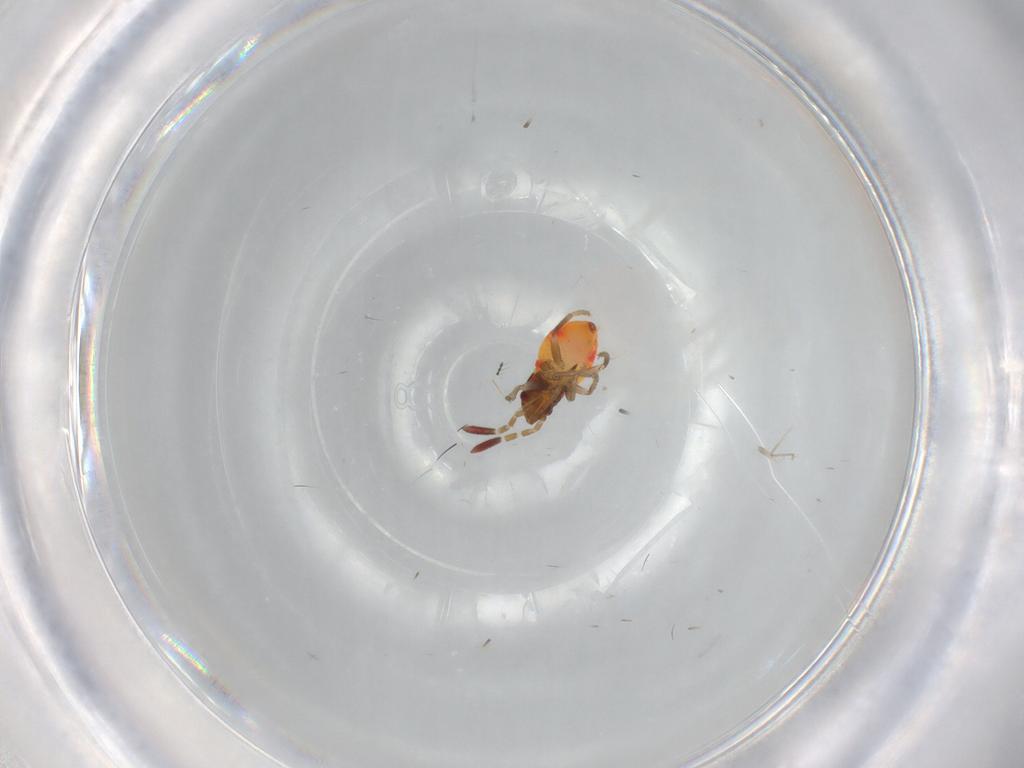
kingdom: Animalia
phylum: Arthropoda
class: Insecta
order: Hemiptera
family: Rhyparochromidae
